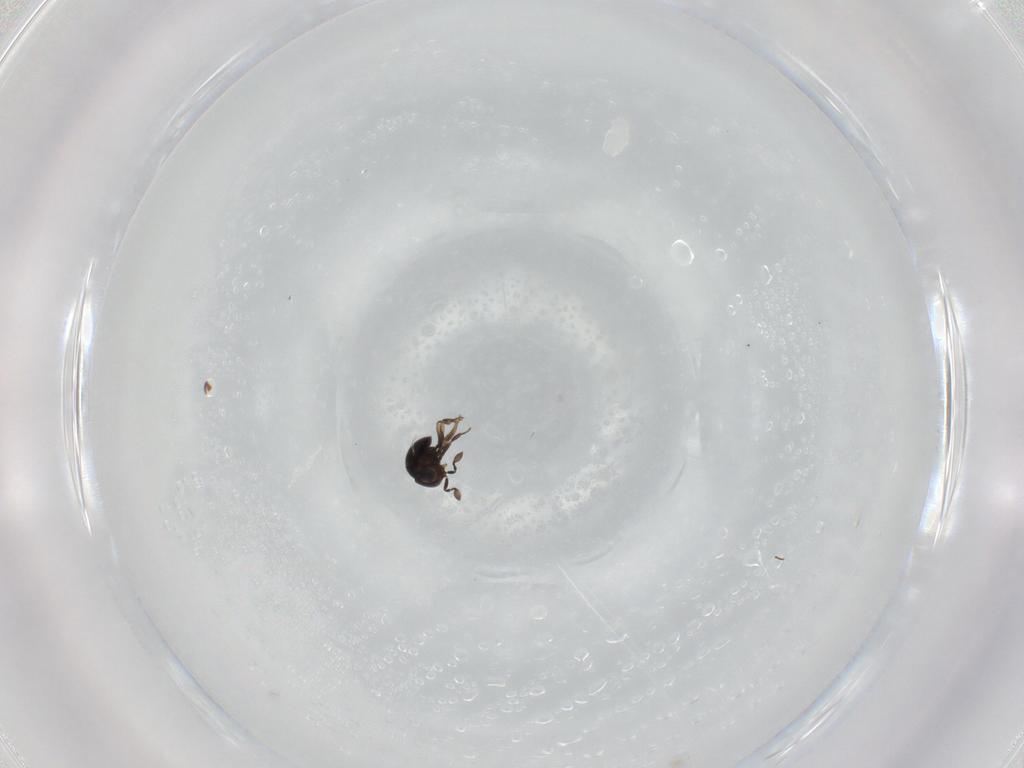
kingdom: Animalia
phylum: Arthropoda
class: Insecta
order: Hymenoptera
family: Scelionidae
